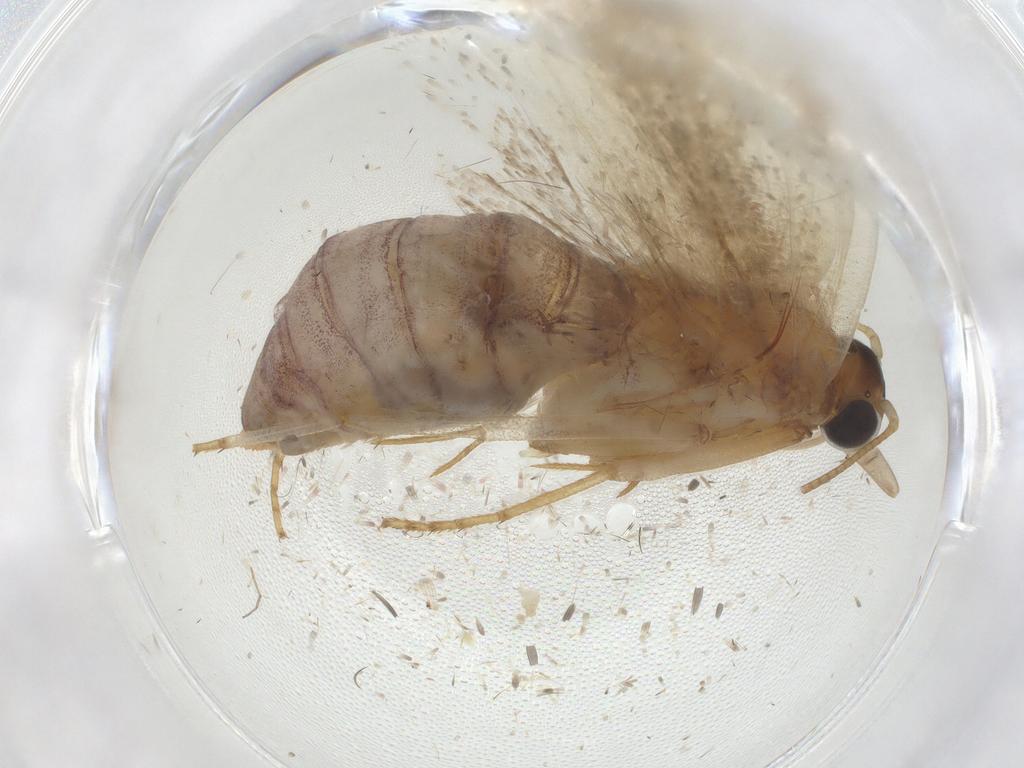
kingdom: Animalia
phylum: Arthropoda
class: Insecta
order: Lepidoptera
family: Tortricidae
